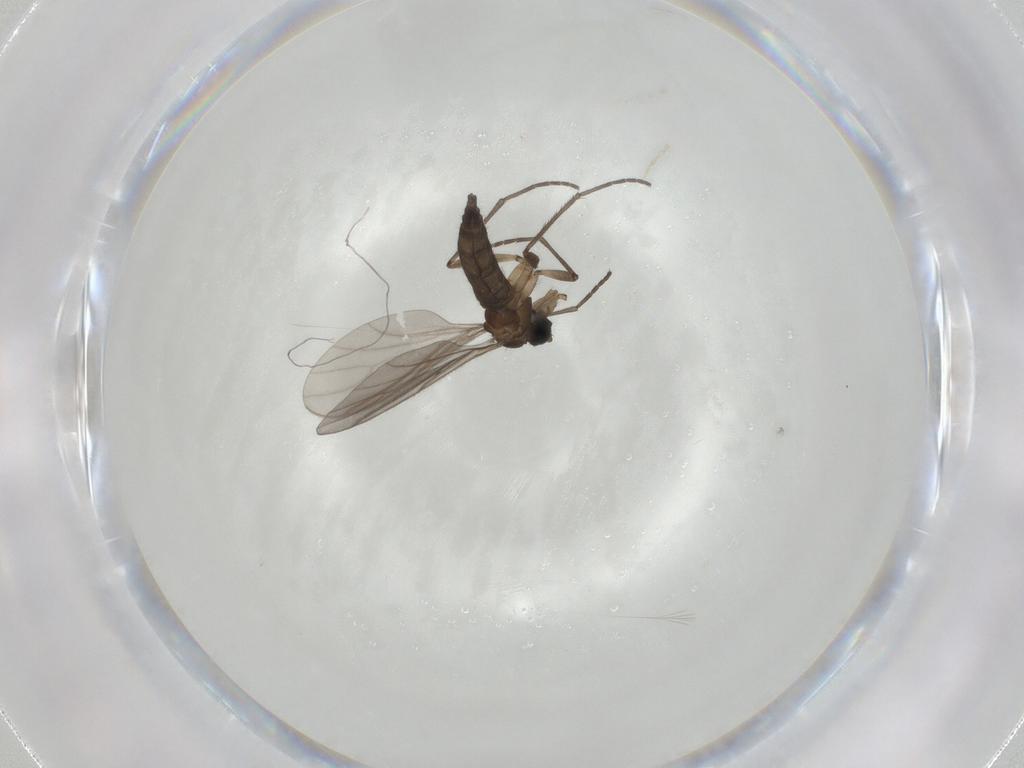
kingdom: Animalia
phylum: Arthropoda
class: Insecta
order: Diptera
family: Sciaridae
